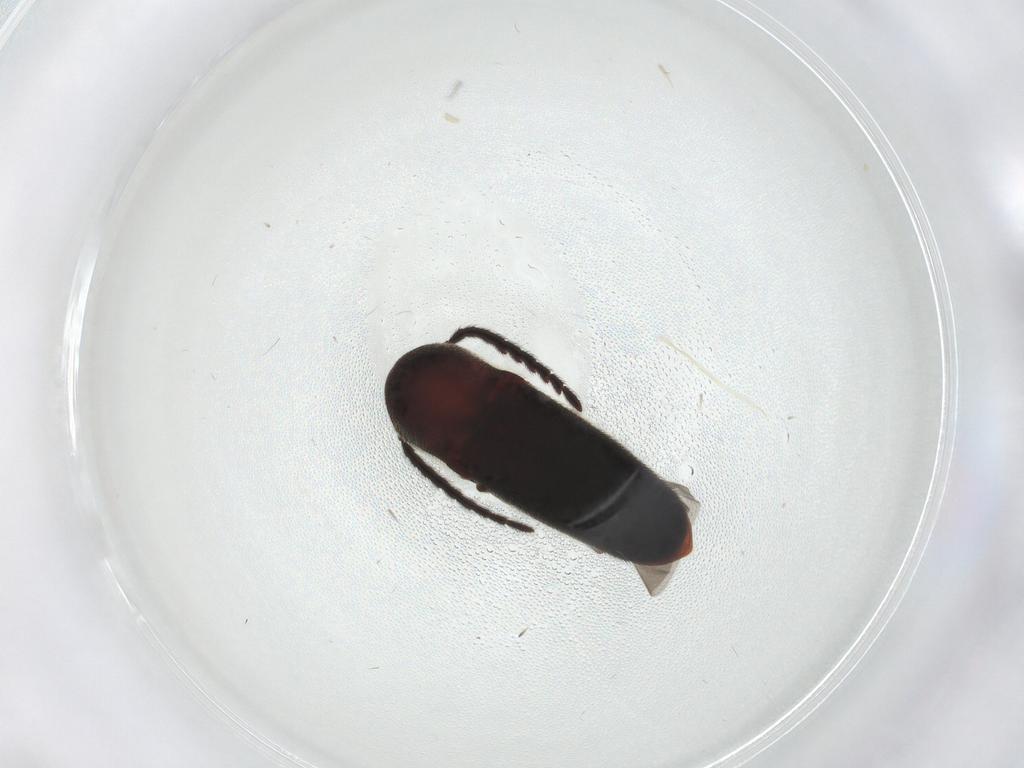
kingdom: Animalia
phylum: Arthropoda
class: Insecta
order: Coleoptera
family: Eucnemidae
